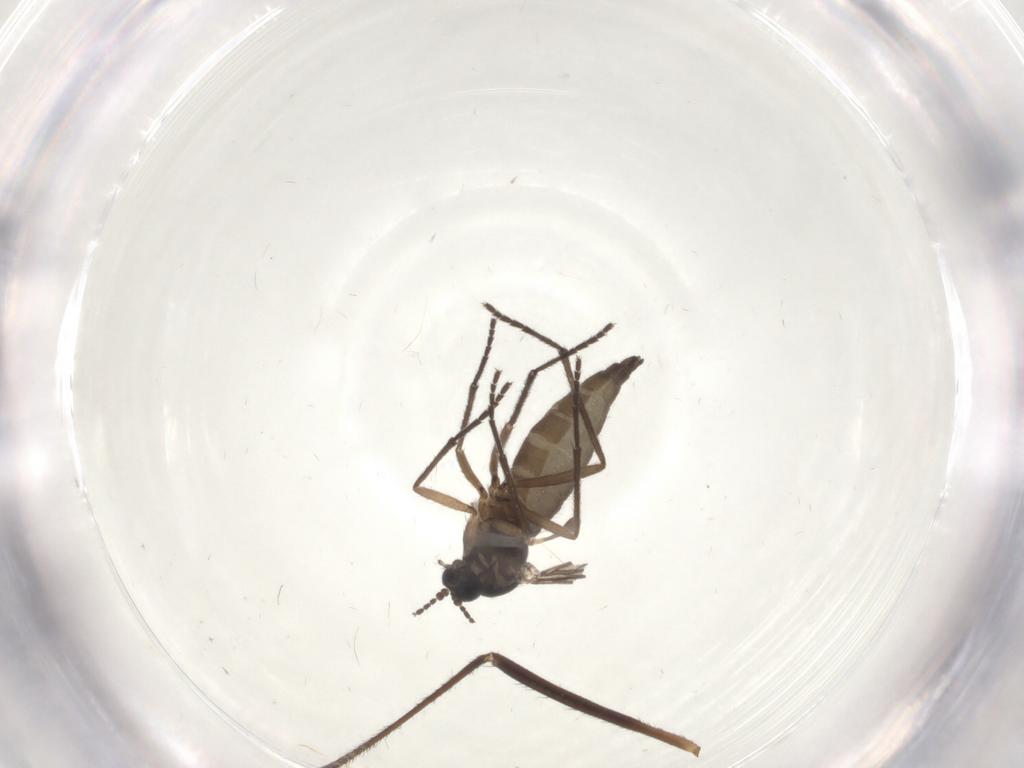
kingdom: Animalia
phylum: Arthropoda
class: Insecta
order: Diptera
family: Sciaridae
